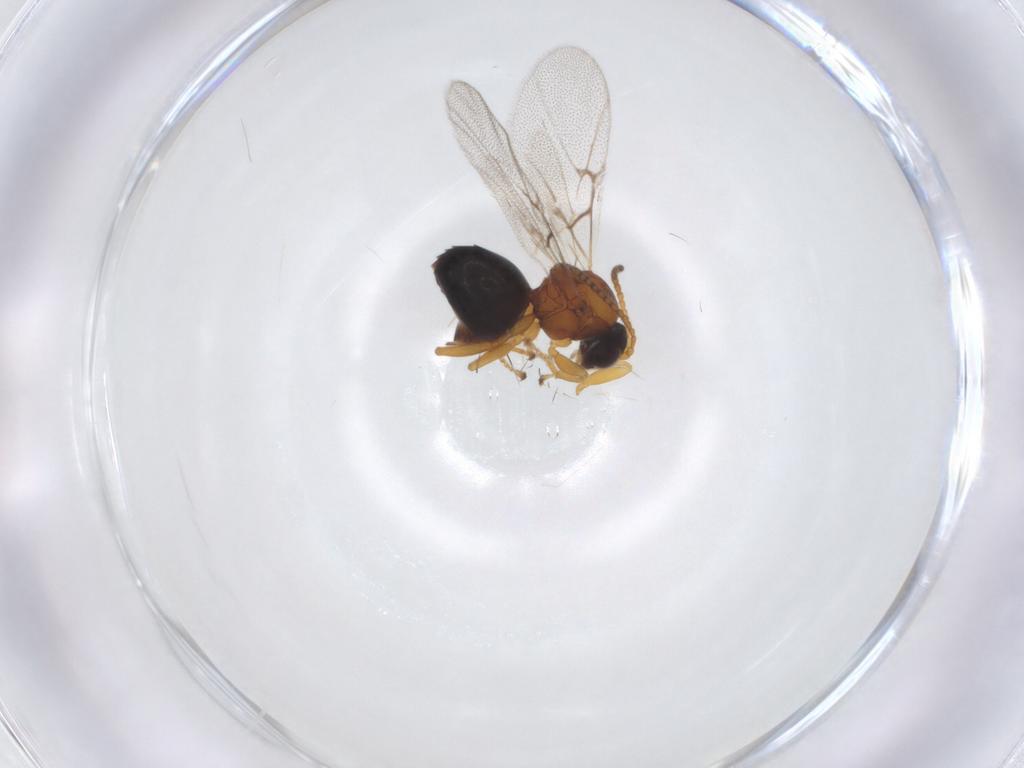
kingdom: Animalia
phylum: Arthropoda
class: Insecta
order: Hymenoptera
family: Cynipidae
